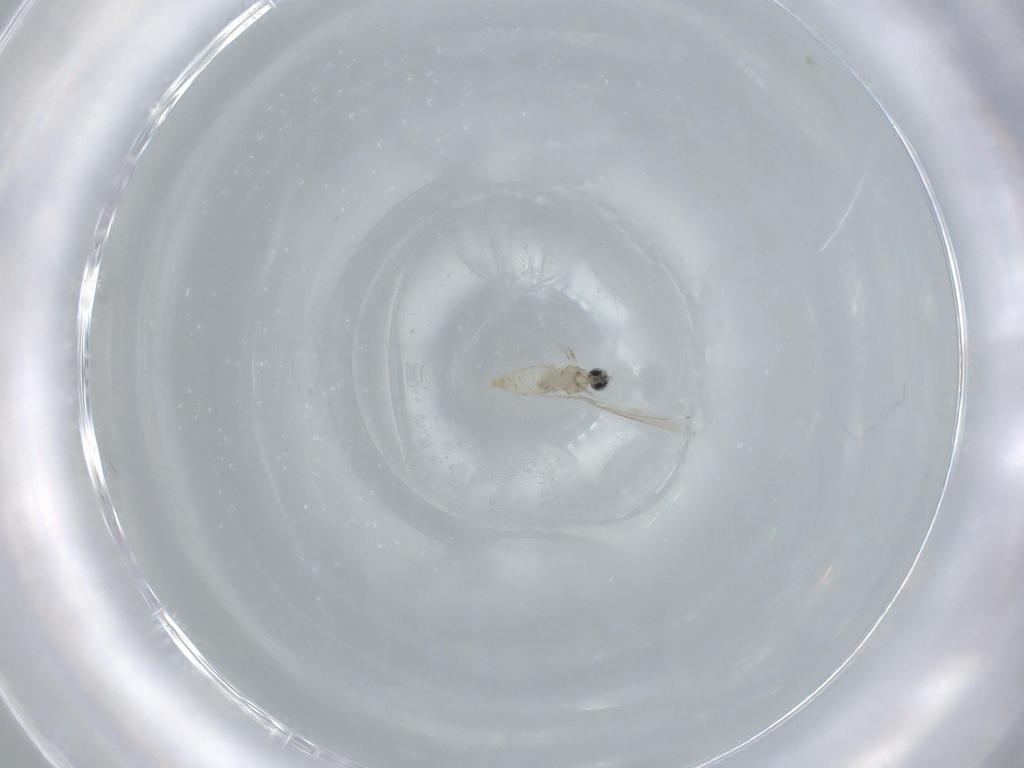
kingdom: Animalia
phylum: Arthropoda
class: Insecta
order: Diptera
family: Cecidomyiidae
